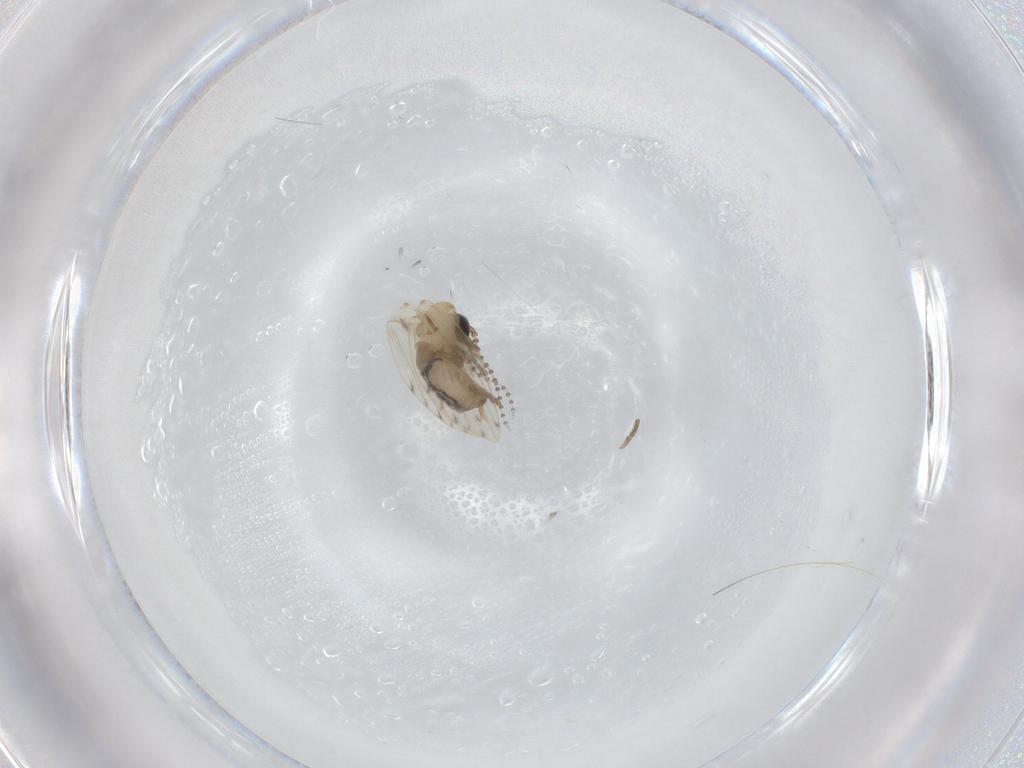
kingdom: Animalia
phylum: Arthropoda
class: Insecta
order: Diptera
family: Psychodidae
